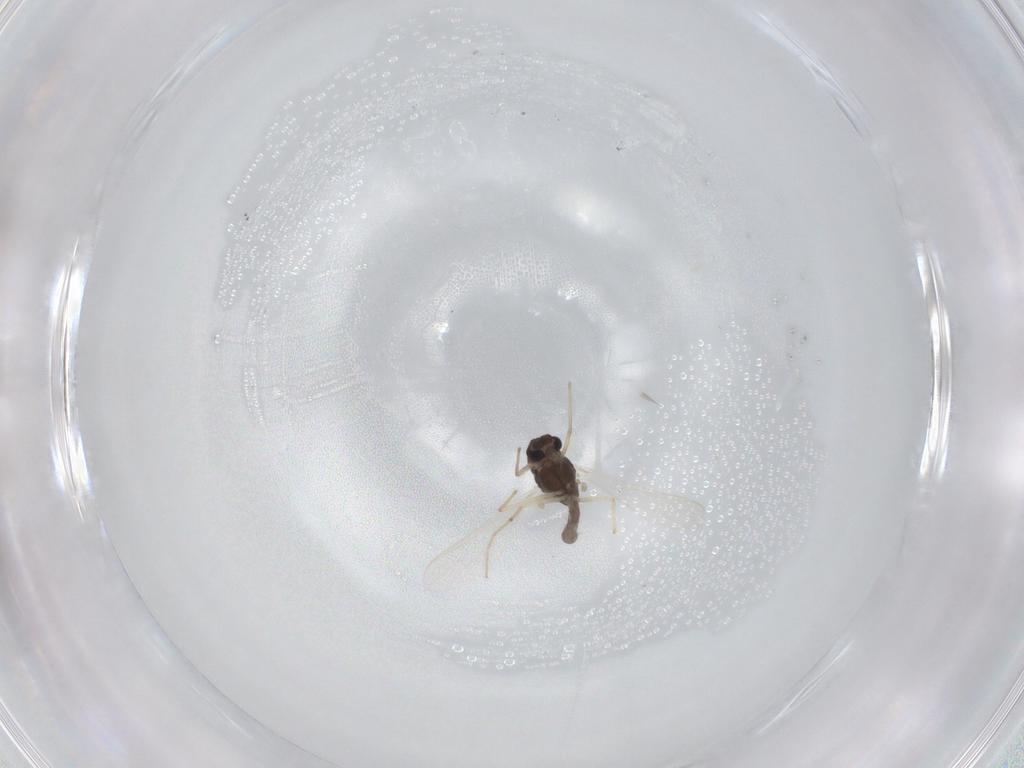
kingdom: Animalia
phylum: Arthropoda
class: Insecta
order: Diptera
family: Chironomidae
